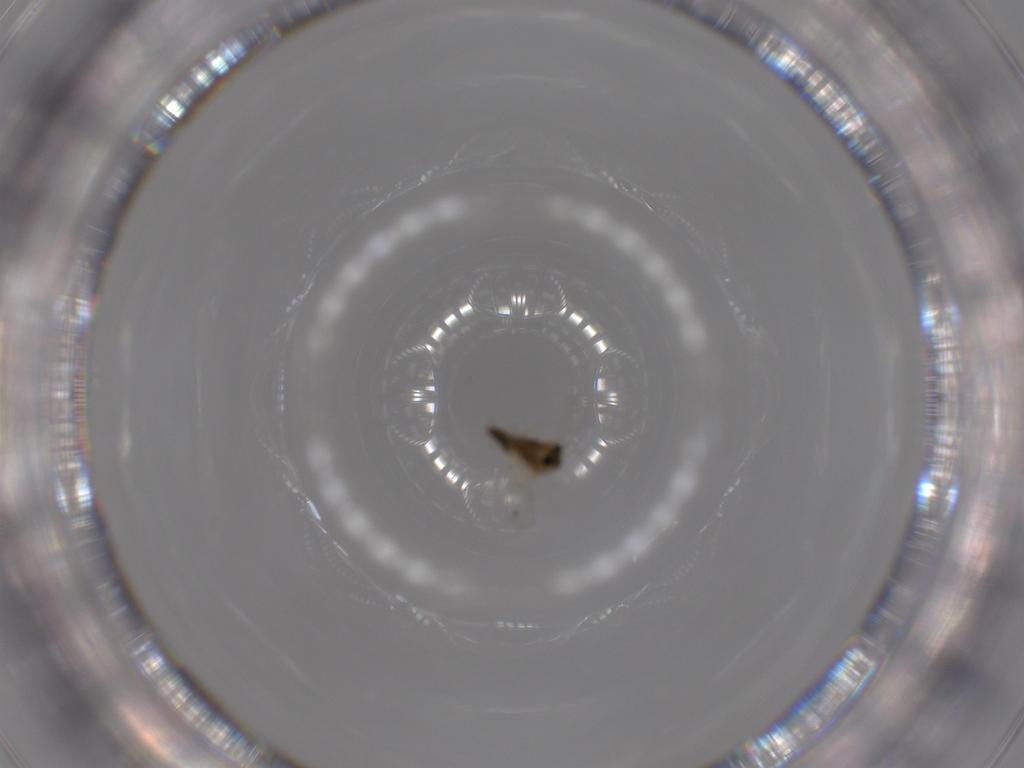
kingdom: Animalia
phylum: Arthropoda
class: Insecta
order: Diptera
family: Chironomidae
